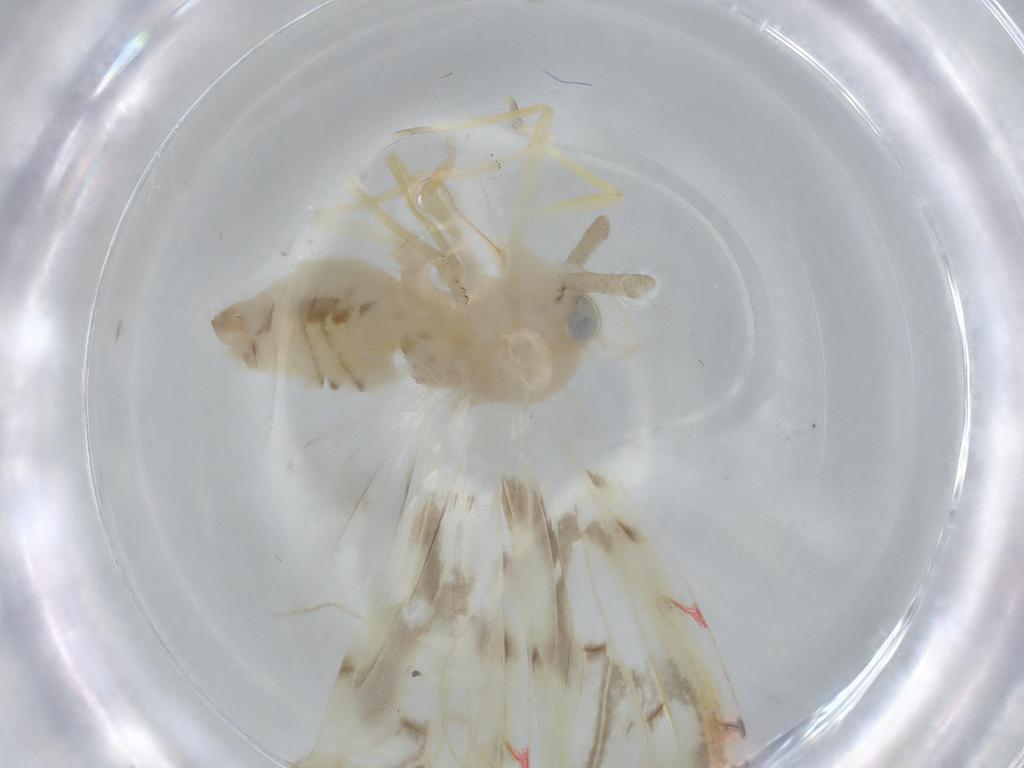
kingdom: Animalia
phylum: Arthropoda
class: Insecta
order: Hemiptera
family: Derbidae
